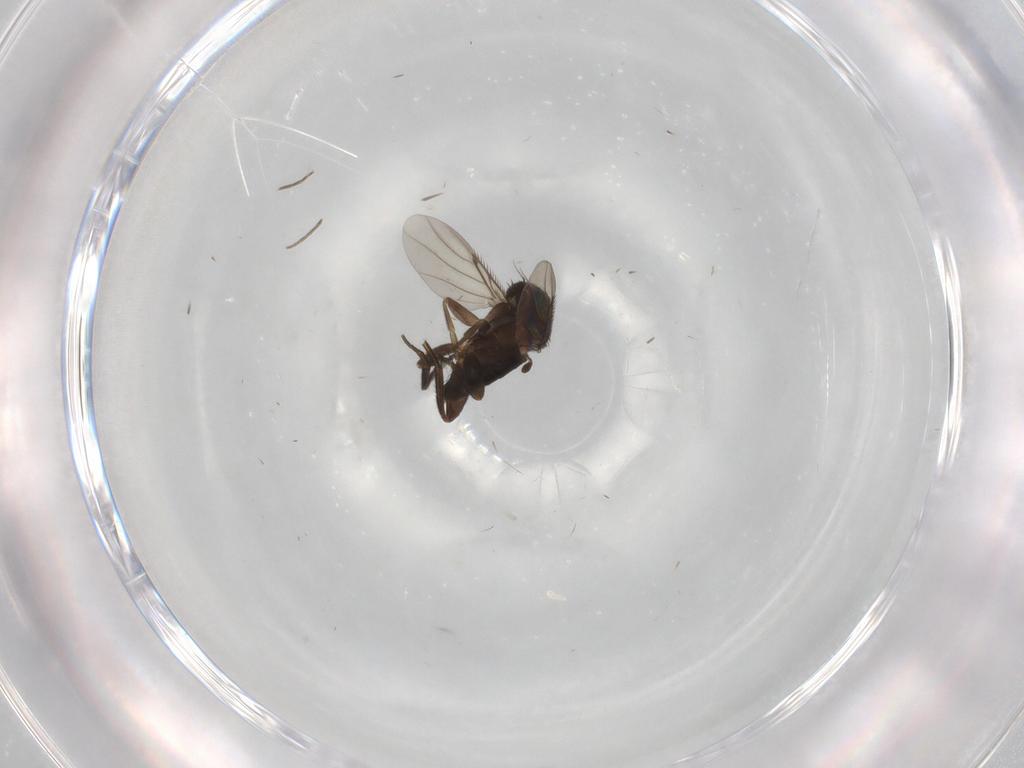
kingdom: Animalia
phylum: Arthropoda
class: Insecta
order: Diptera
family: Phoridae
